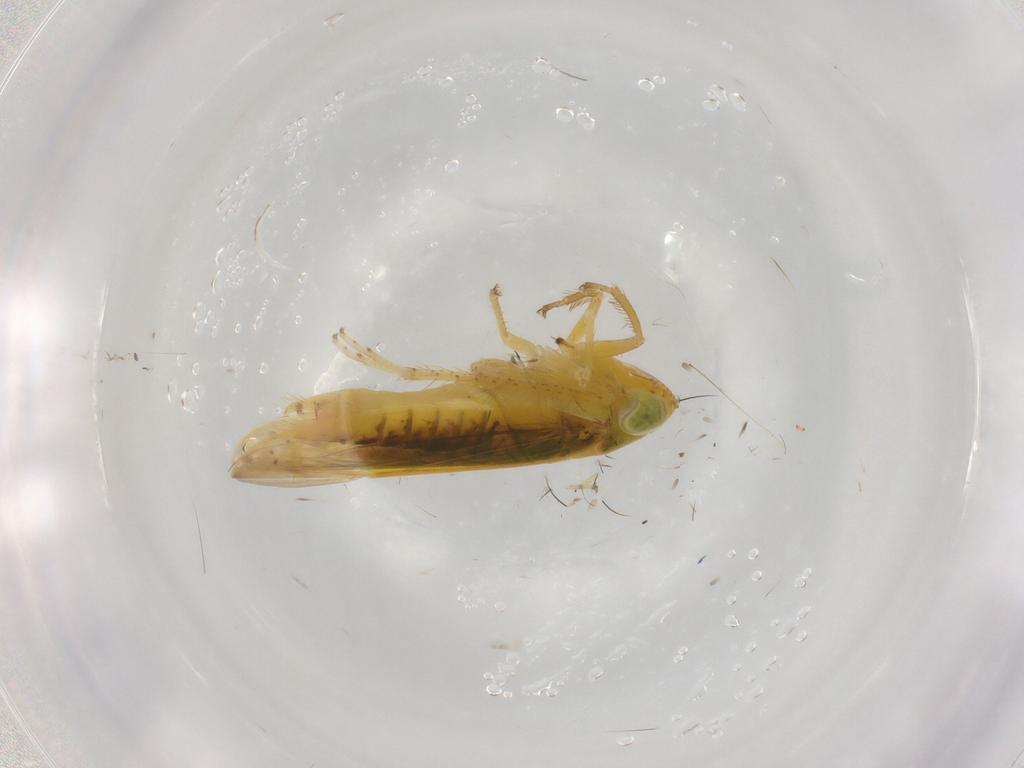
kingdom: Animalia
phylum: Arthropoda
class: Insecta
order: Hemiptera
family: Cicadellidae
